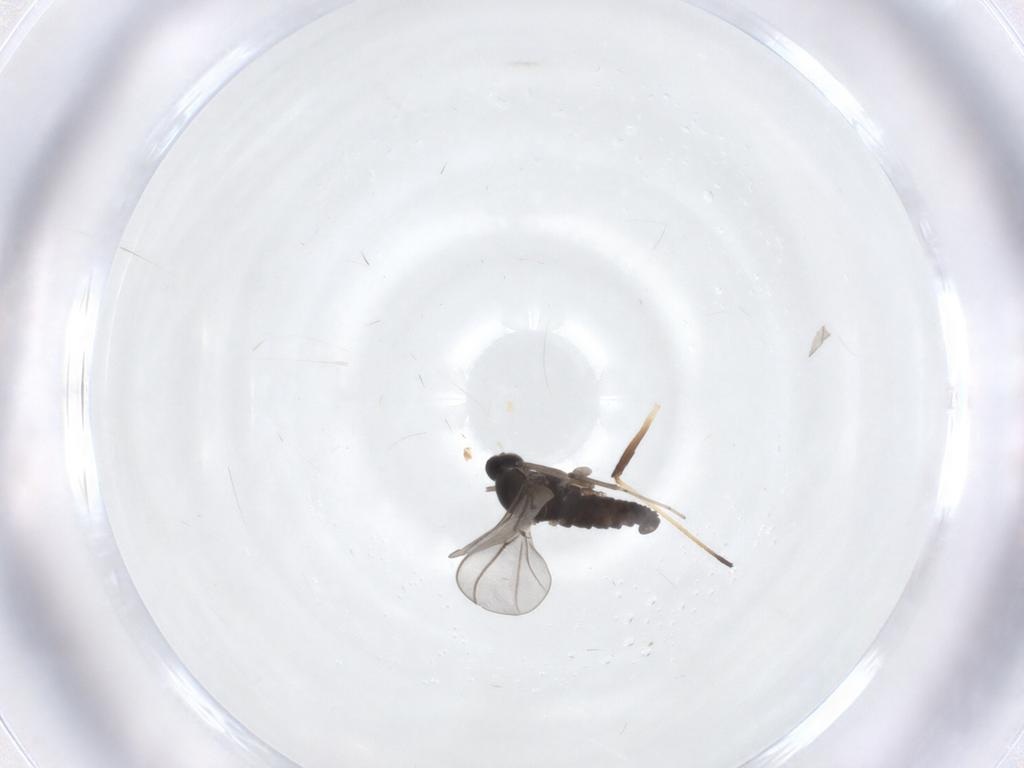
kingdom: Animalia
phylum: Arthropoda
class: Insecta
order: Diptera
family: Cecidomyiidae
